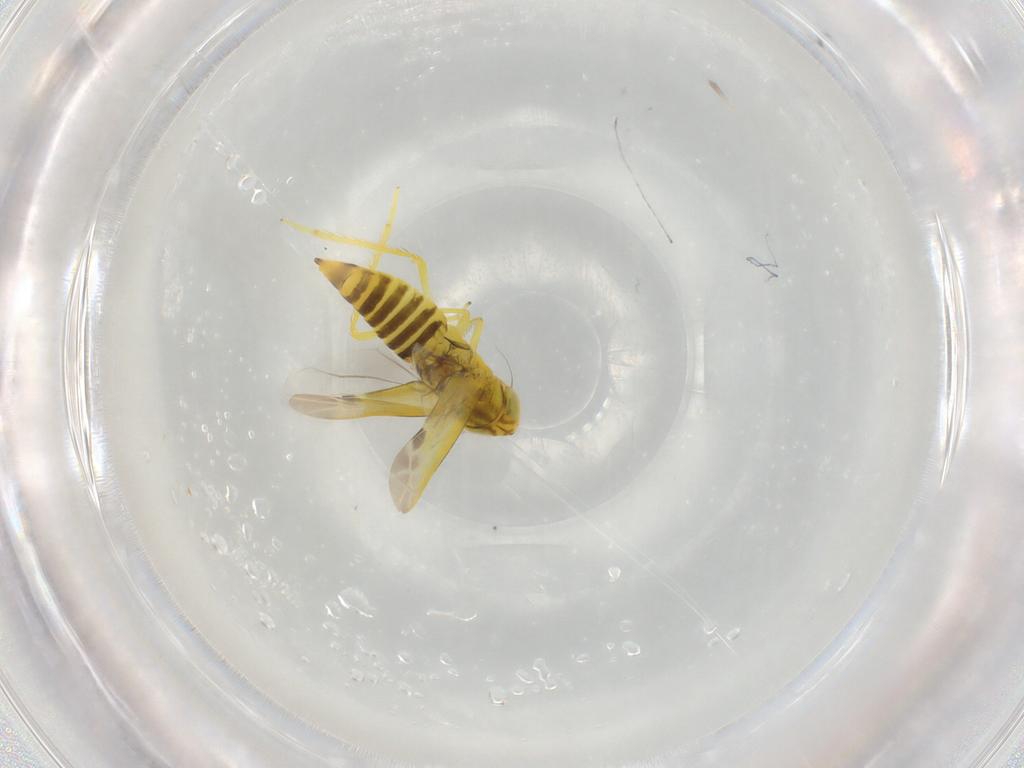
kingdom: Animalia
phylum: Arthropoda
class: Insecta
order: Hemiptera
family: Cicadellidae
